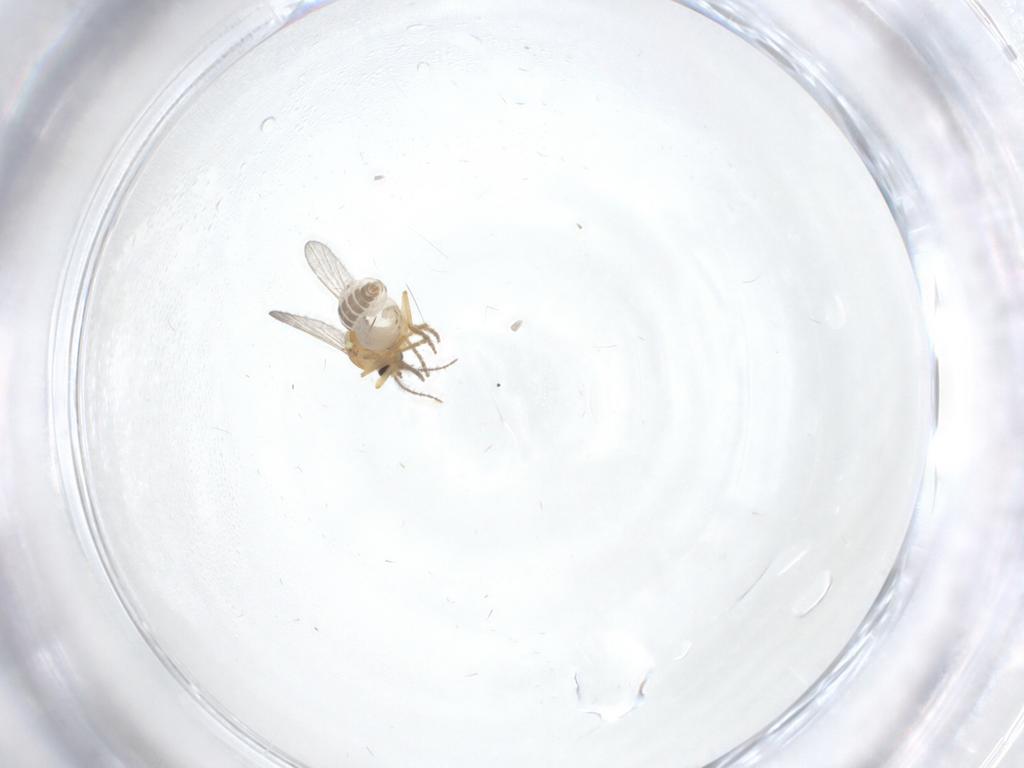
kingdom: Animalia
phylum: Arthropoda
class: Insecta
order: Diptera
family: Ceratopogonidae
